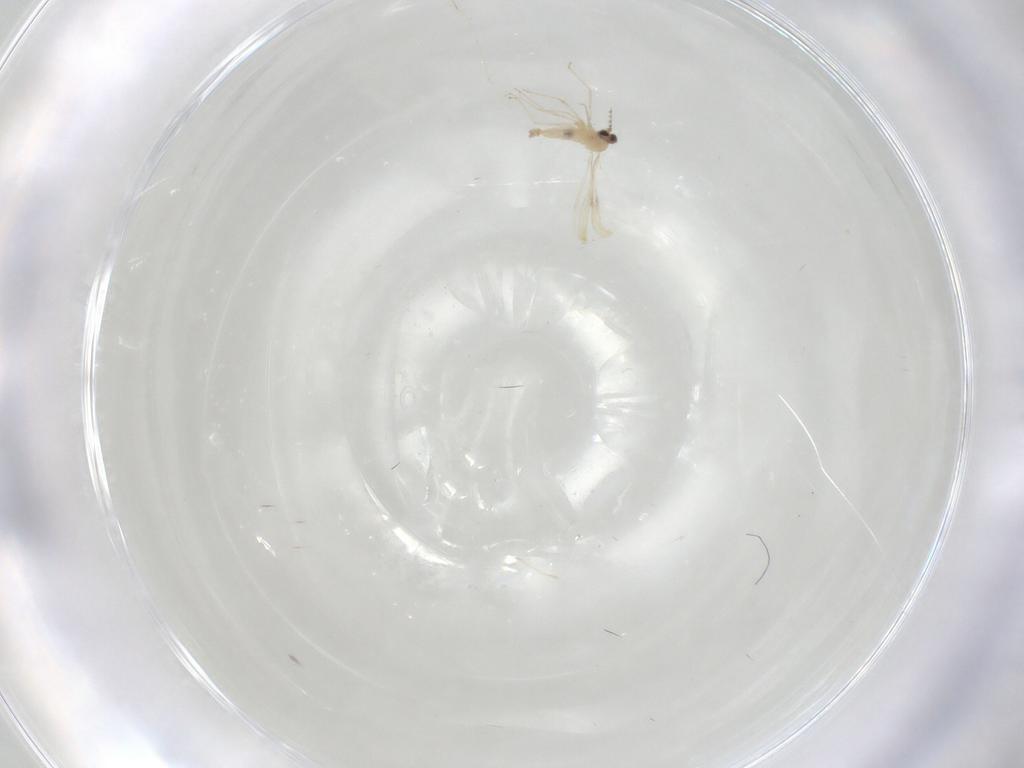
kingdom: Animalia
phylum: Arthropoda
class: Insecta
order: Diptera
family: Cecidomyiidae
